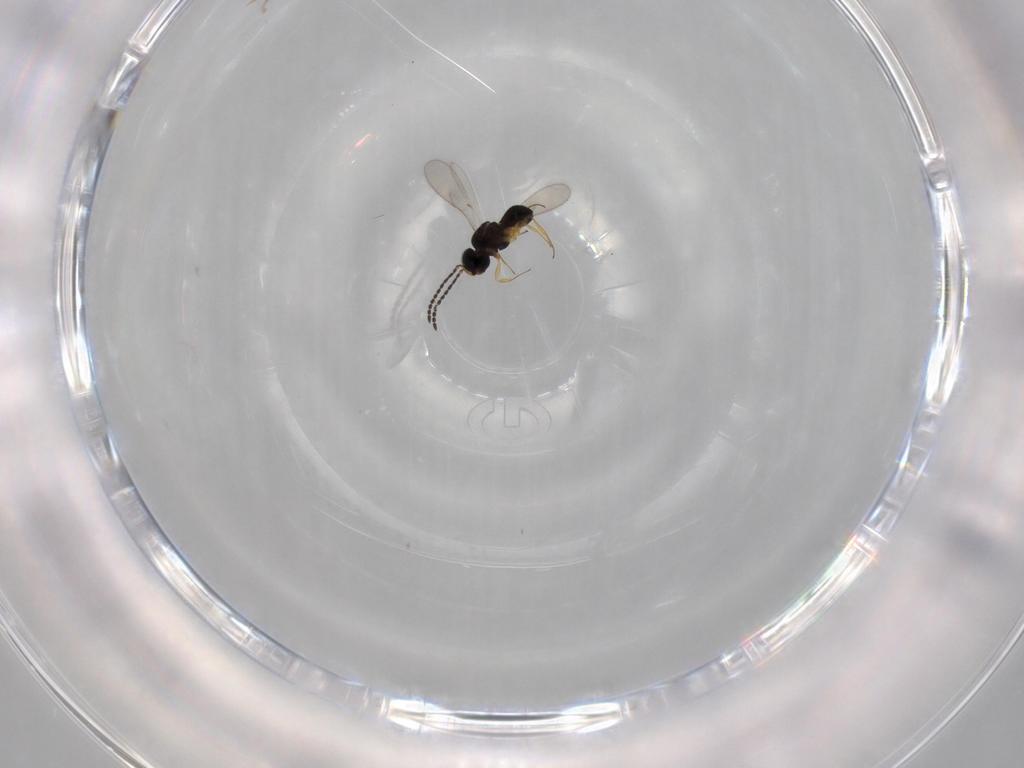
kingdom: Animalia
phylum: Arthropoda
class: Insecta
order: Hymenoptera
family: Scelionidae
